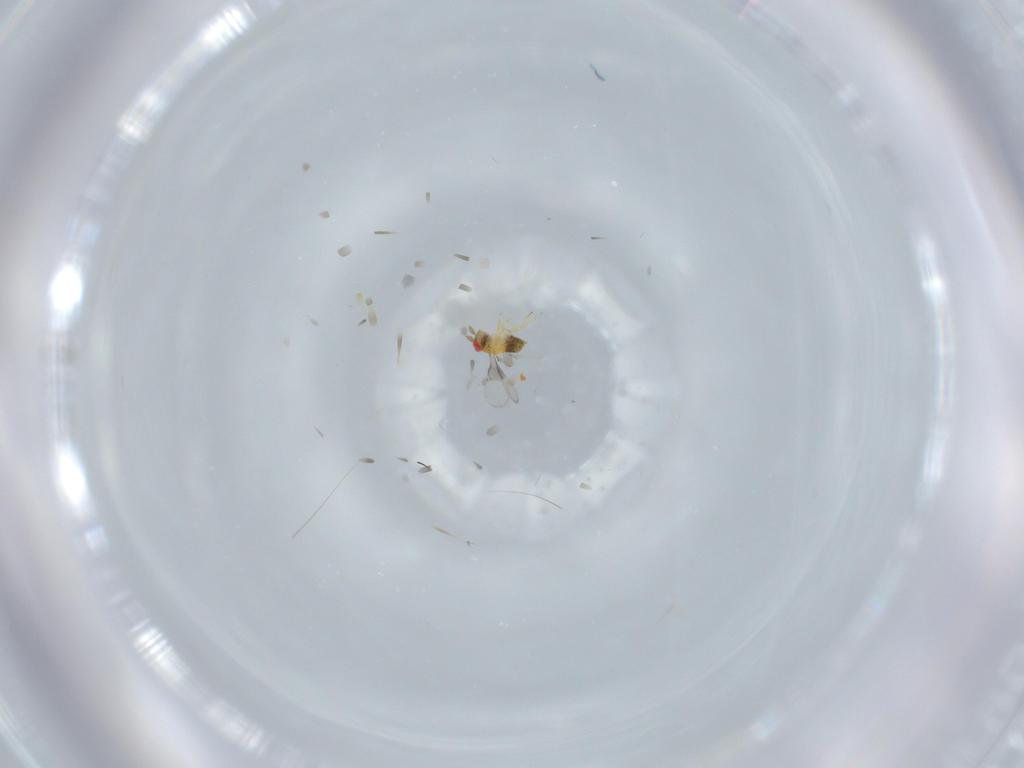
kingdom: Animalia
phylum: Arthropoda
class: Insecta
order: Hymenoptera
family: Trichogrammatidae
